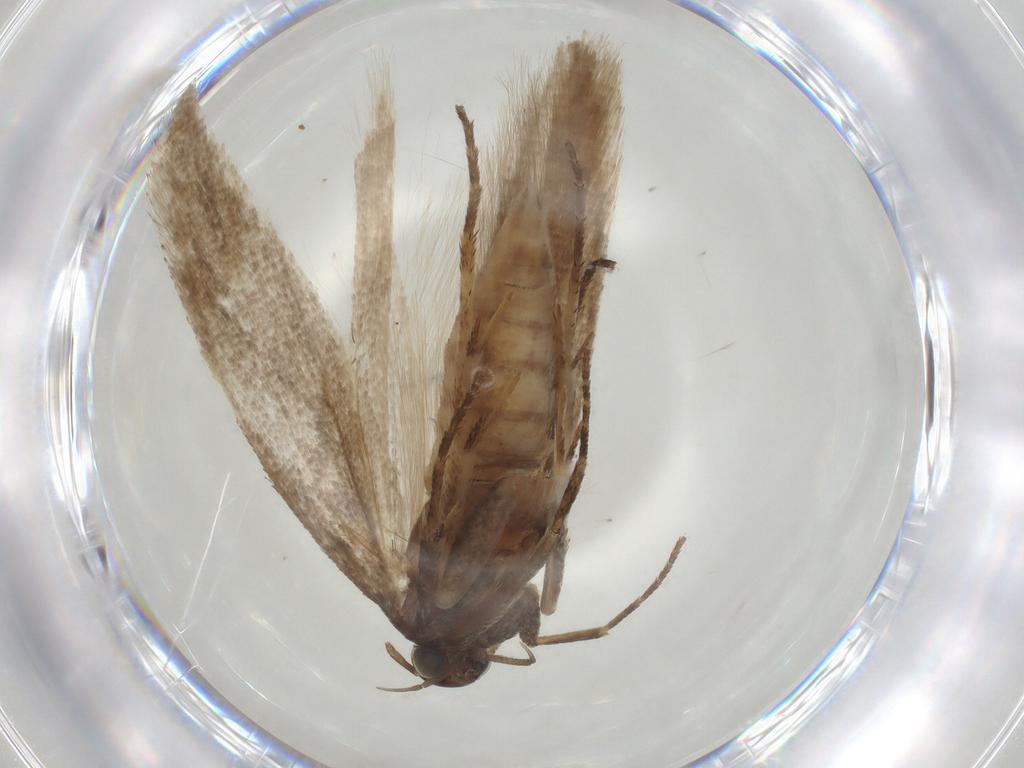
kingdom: Animalia
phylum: Arthropoda
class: Insecta
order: Lepidoptera
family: Gelechiidae
